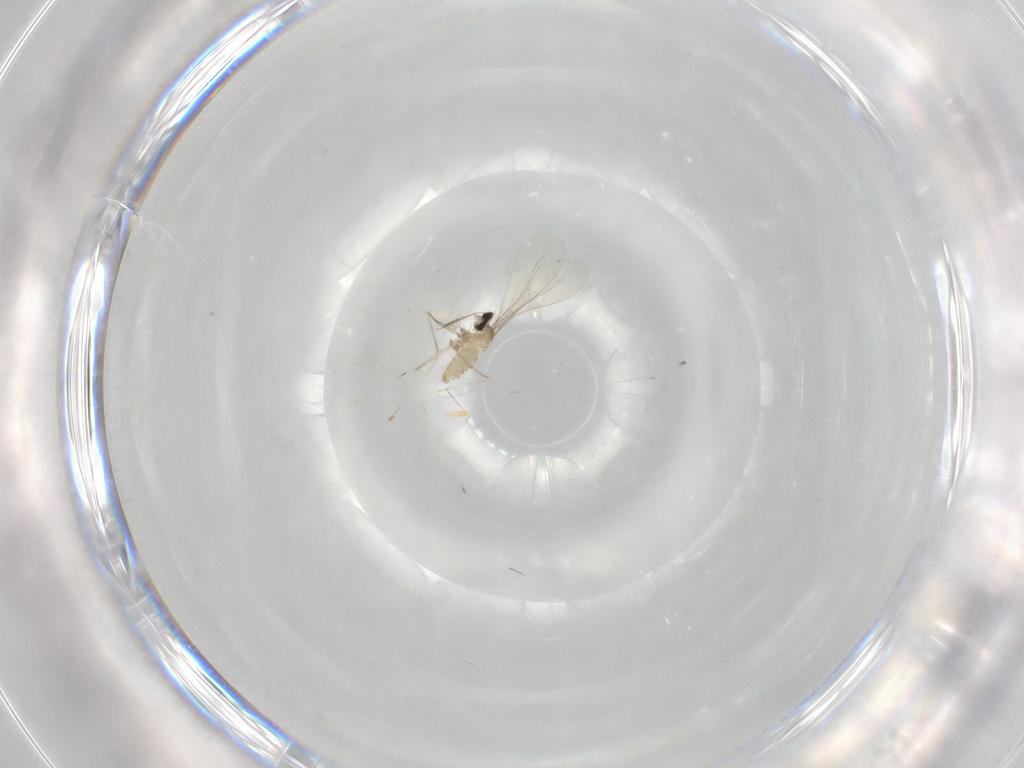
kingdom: Animalia
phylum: Arthropoda
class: Insecta
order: Diptera
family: Cecidomyiidae
